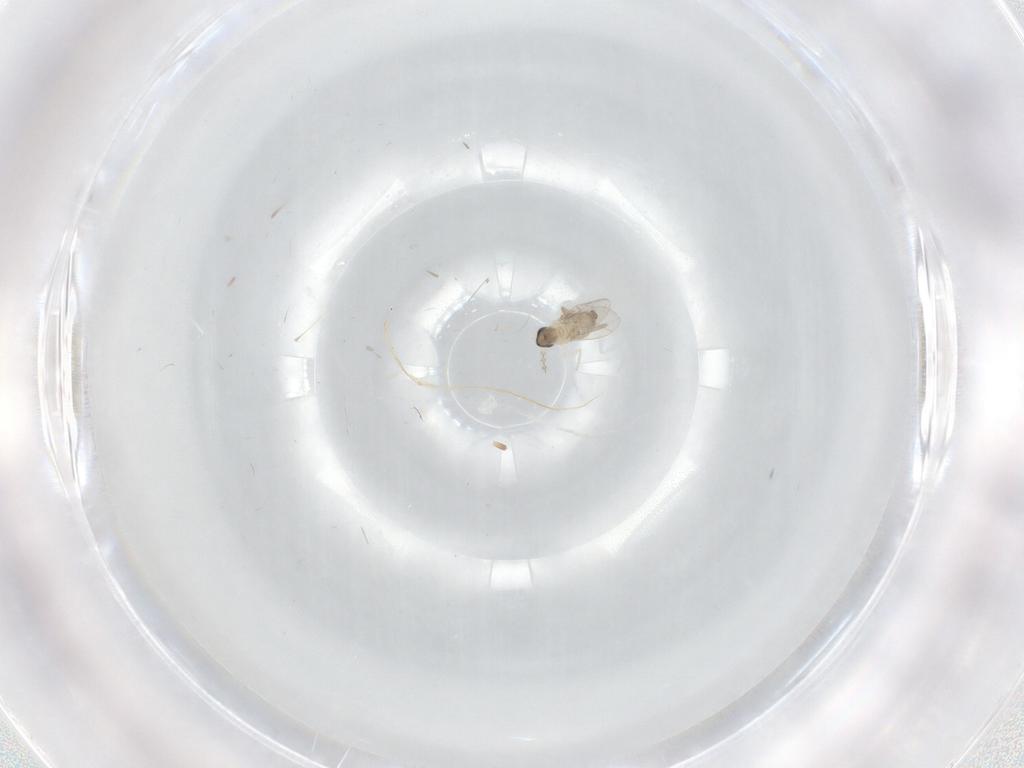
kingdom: Animalia
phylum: Arthropoda
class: Insecta
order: Diptera
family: Cecidomyiidae
